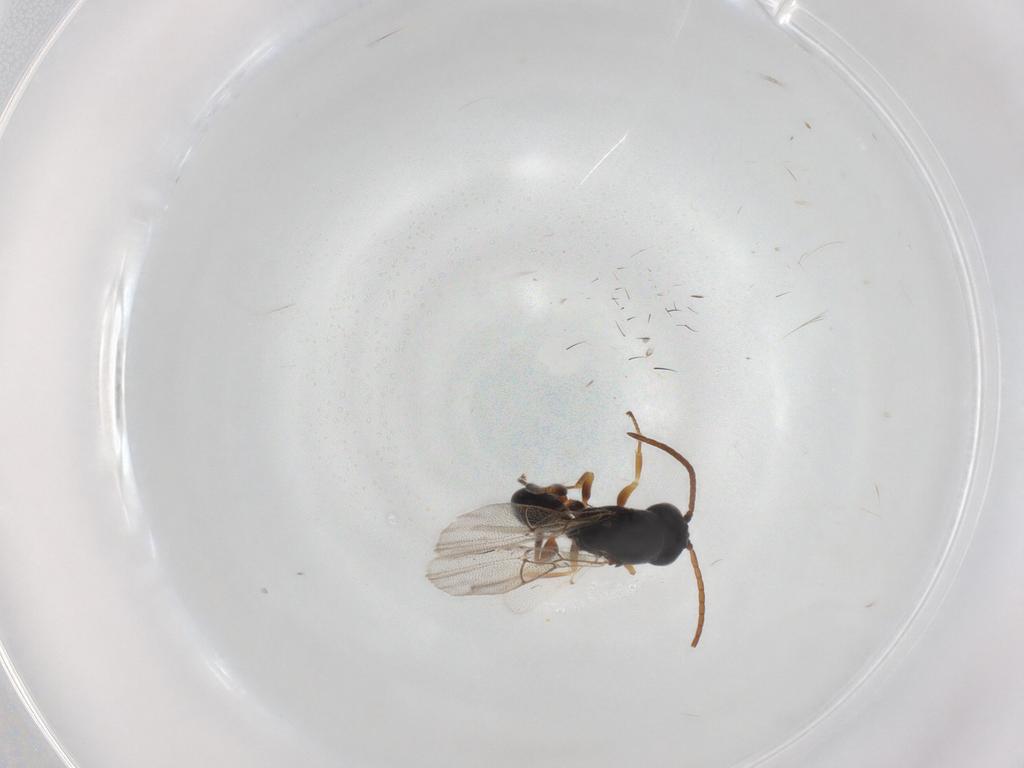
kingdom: Animalia
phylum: Arthropoda
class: Insecta
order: Hymenoptera
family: Figitidae
